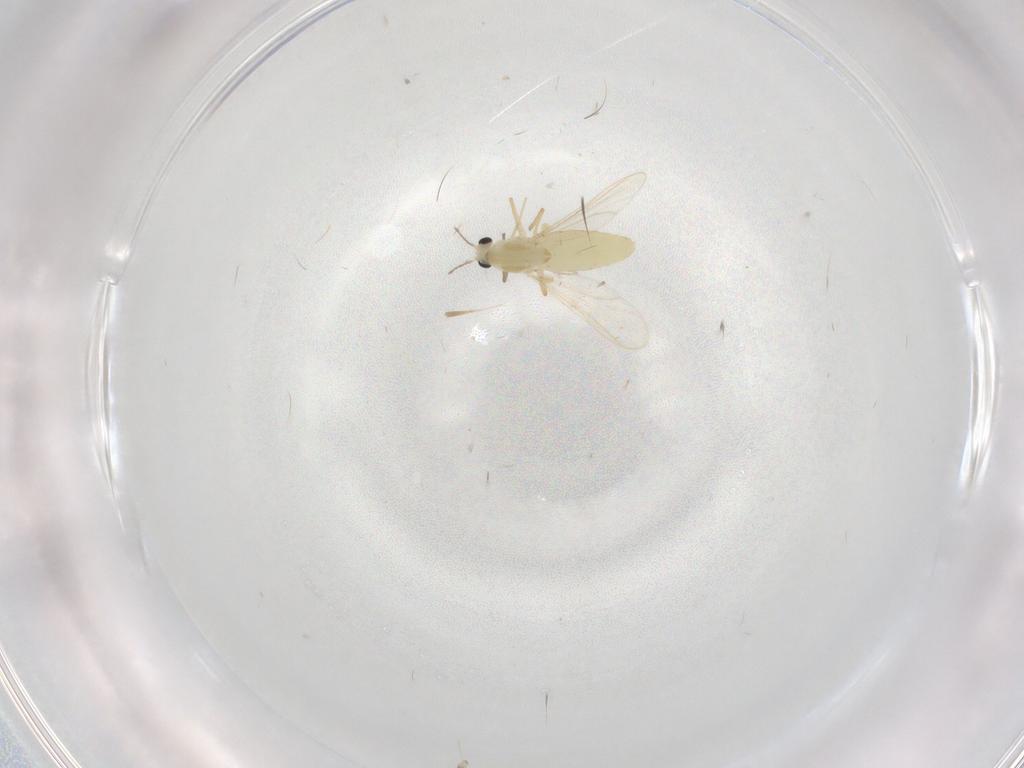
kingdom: Animalia
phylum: Arthropoda
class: Insecta
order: Diptera
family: Chironomidae
